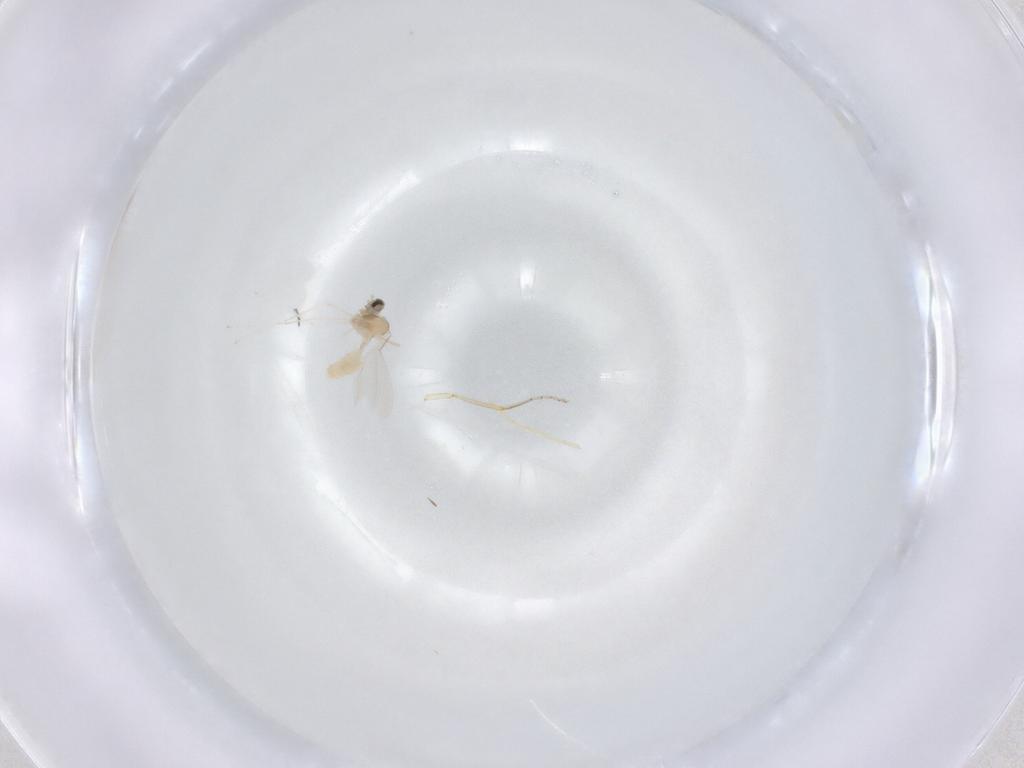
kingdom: Animalia
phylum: Arthropoda
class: Insecta
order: Diptera
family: Cecidomyiidae
